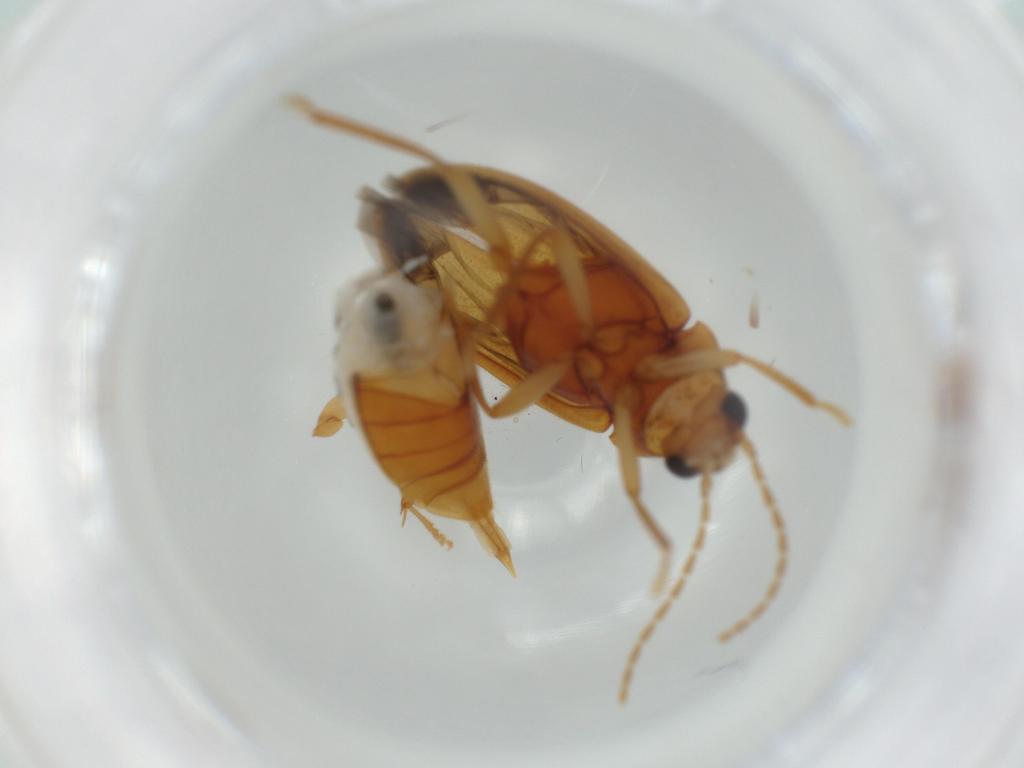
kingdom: Animalia
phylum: Arthropoda
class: Insecta
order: Coleoptera
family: Ptilodactylidae
